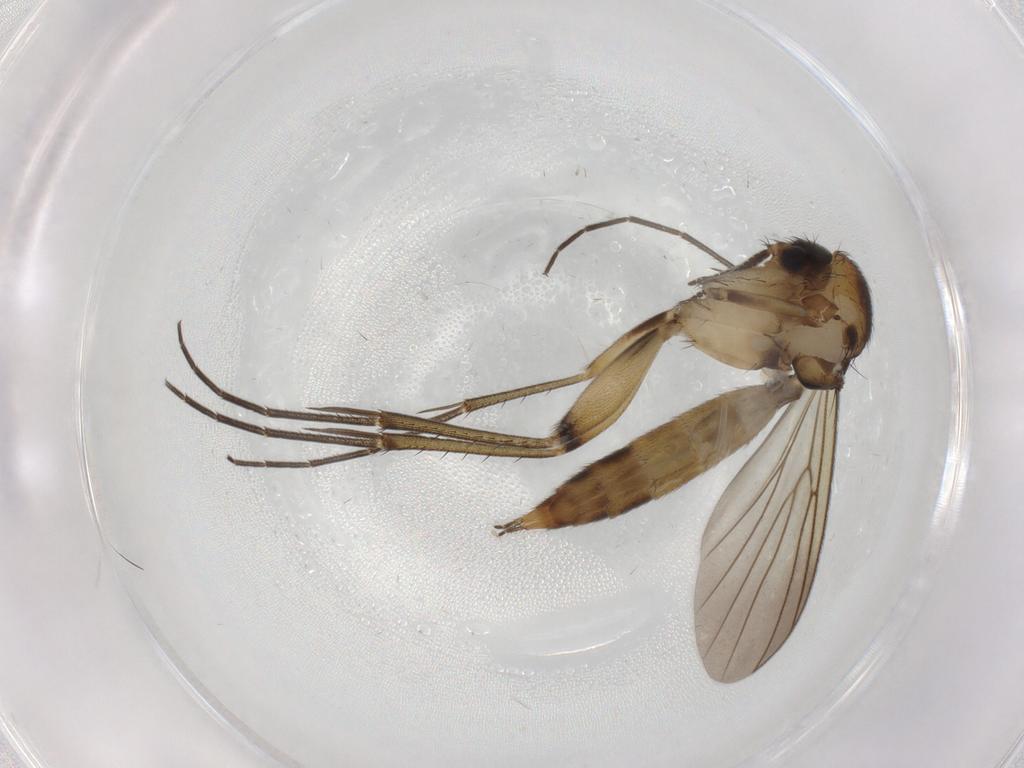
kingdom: Animalia
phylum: Arthropoda
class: Insecta
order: Diptera
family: Mycetophilidae
